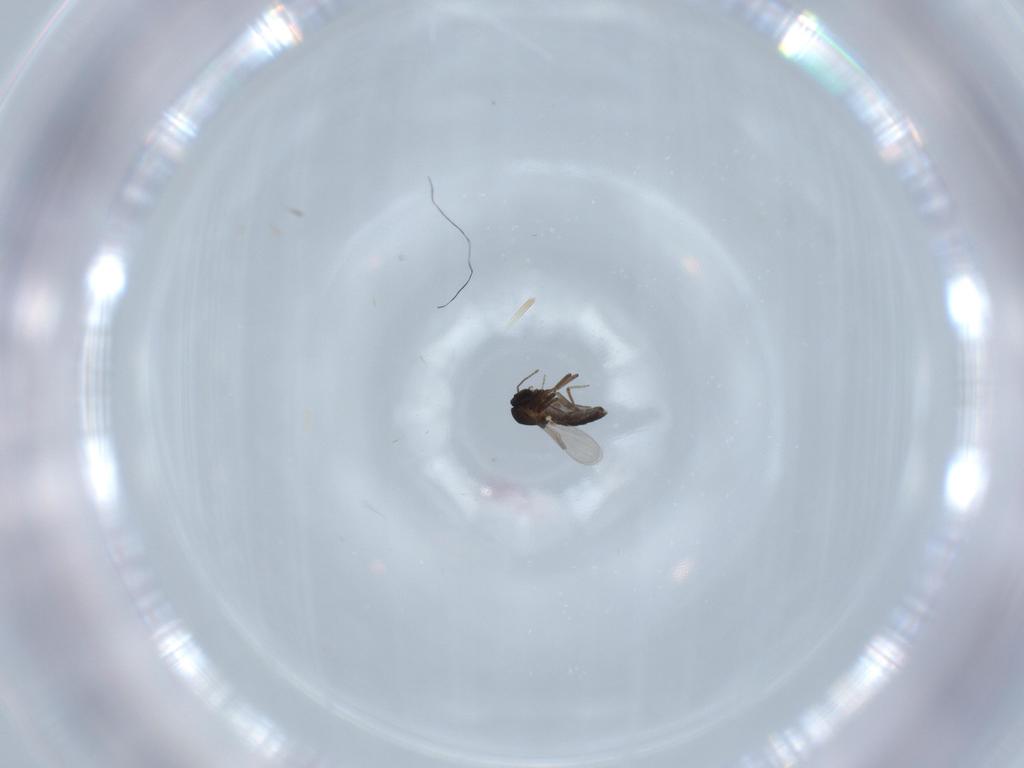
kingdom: Animalia
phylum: Arthropoda
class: Insecta
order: Diptera
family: Ceratopogonidae
